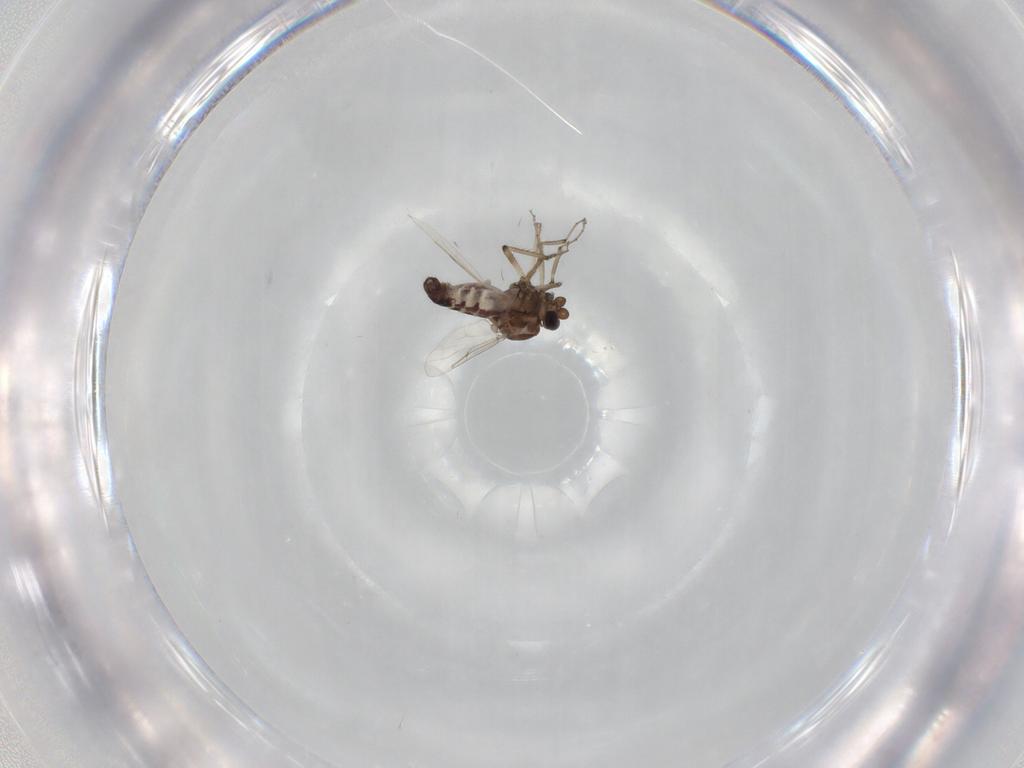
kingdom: Animalia
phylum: Arthropoda
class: Insecta
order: Diptera
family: Ceratopogonidae
